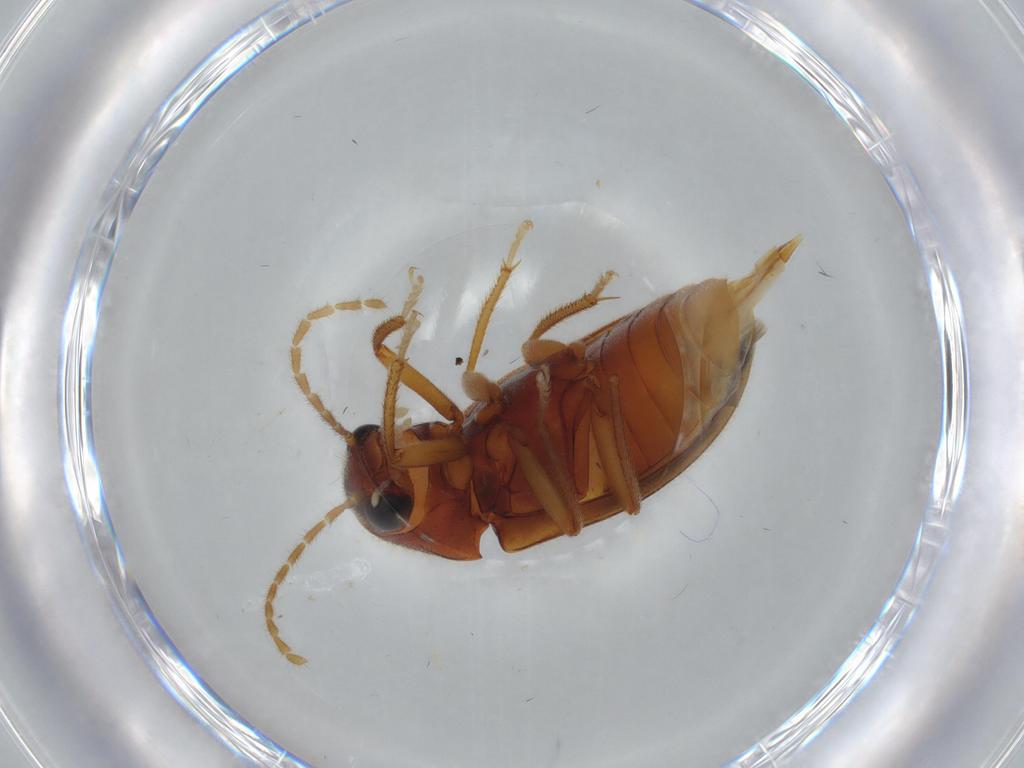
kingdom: Animalia
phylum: Arthropoda
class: Insecta
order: Coleoptera
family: Ptilodactylidae
